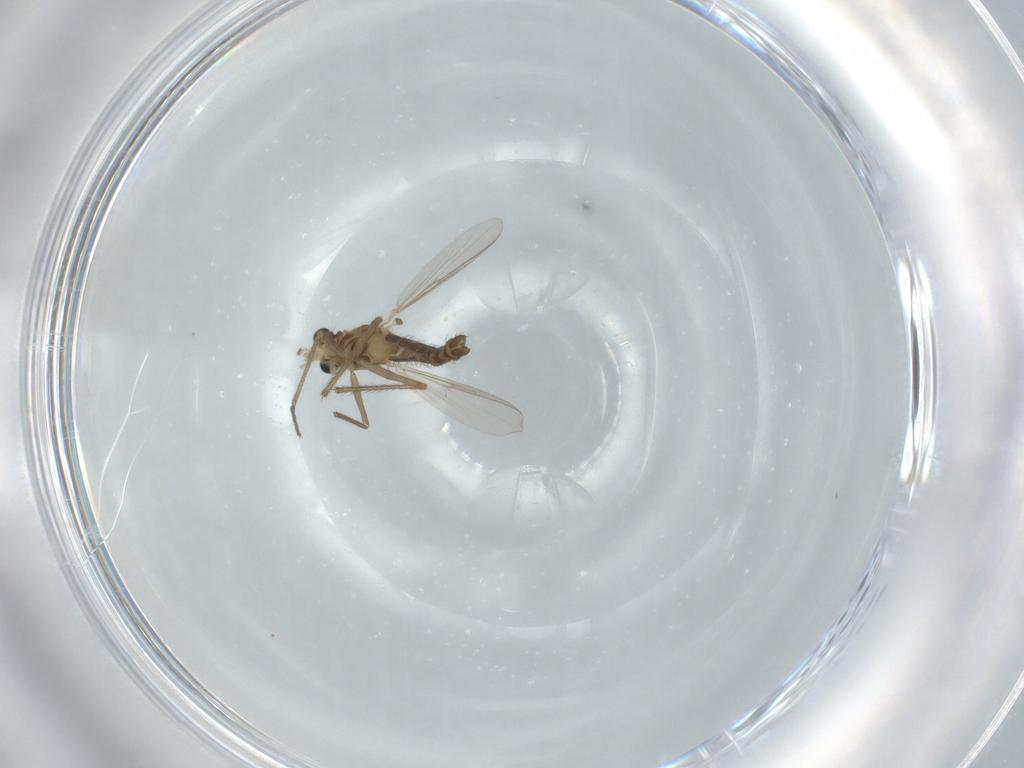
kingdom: Animalia
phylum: Arthropoda
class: Insecta
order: Diptera
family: Chironomidae
